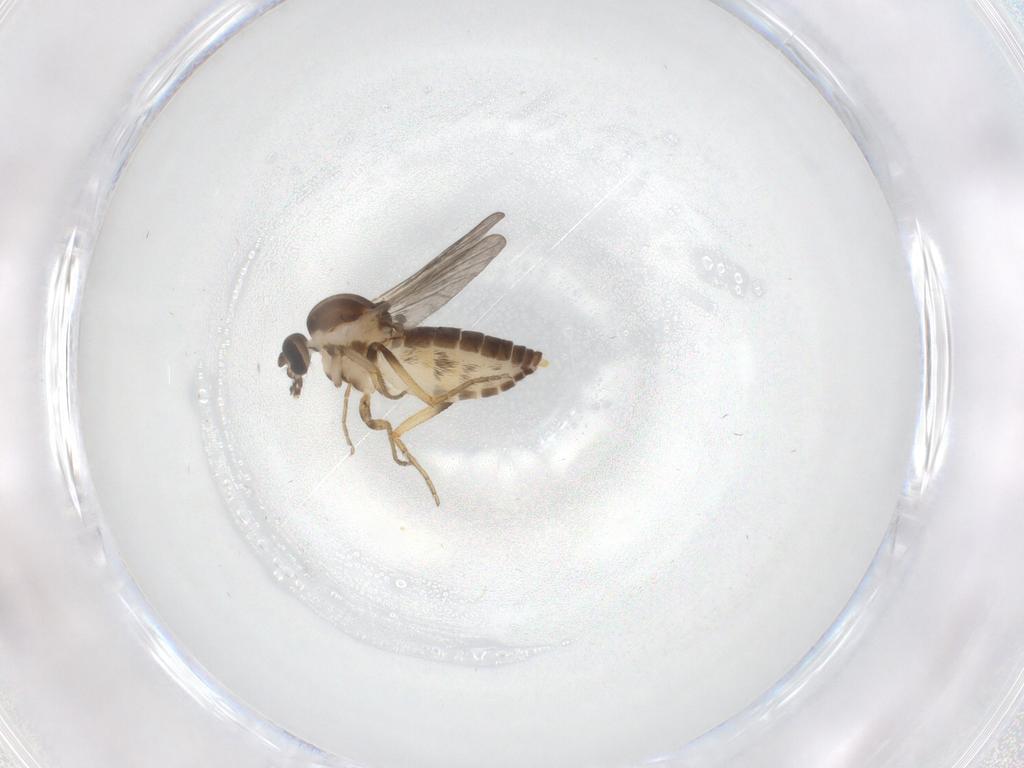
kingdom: Animalia
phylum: Arthropoda
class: Insecta
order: Diptera
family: Ceratopogonidae
